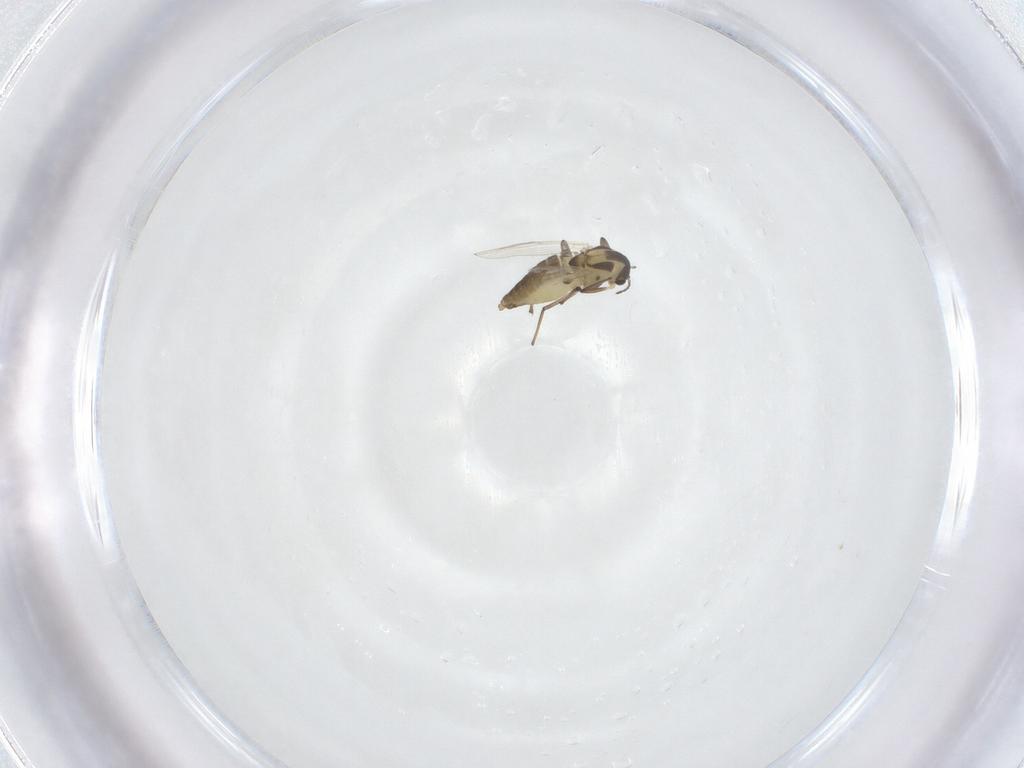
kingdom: Animalia
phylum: Arthropoda
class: Insecta
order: Diptera
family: Chironomidae
